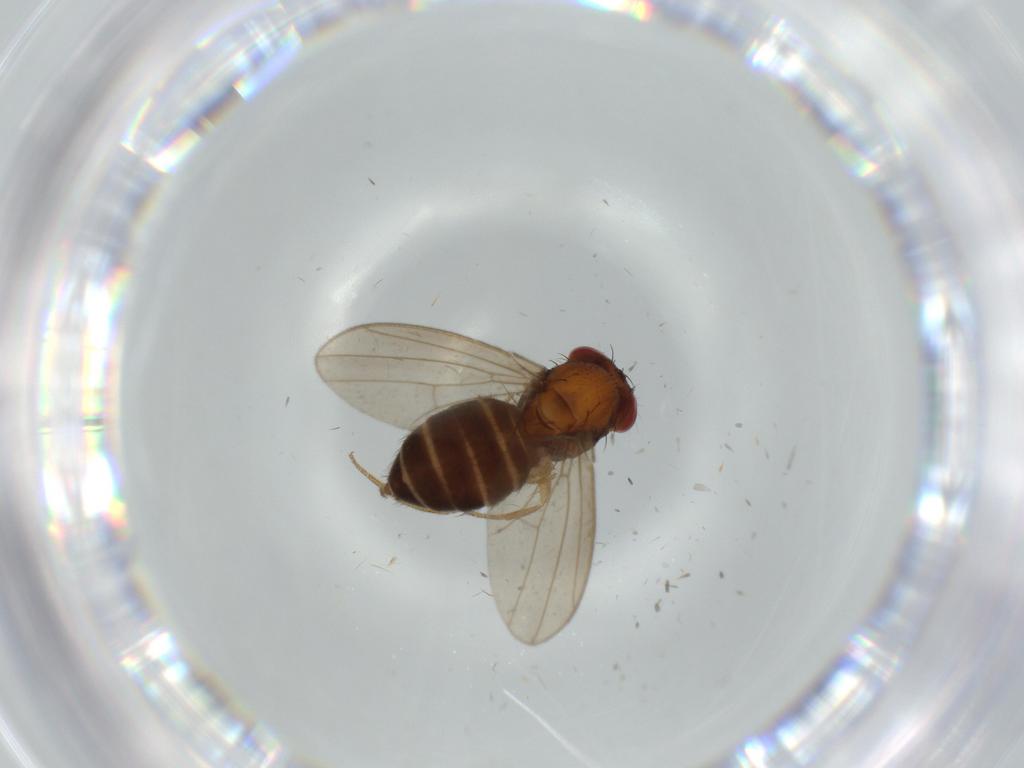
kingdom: Animalia
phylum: Arthropoda
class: Insecta
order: Diptera
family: Drosophilidae
